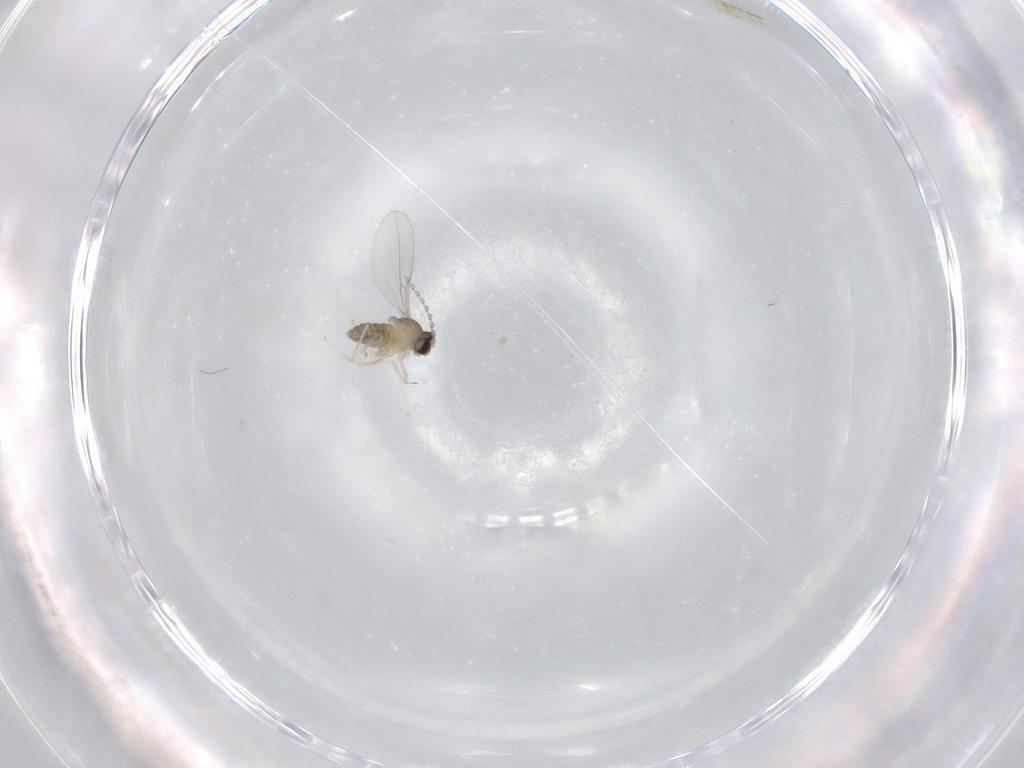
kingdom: Animalia
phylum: Arthropoda
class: Insecta
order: Diptera
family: Cecidomyiidae
